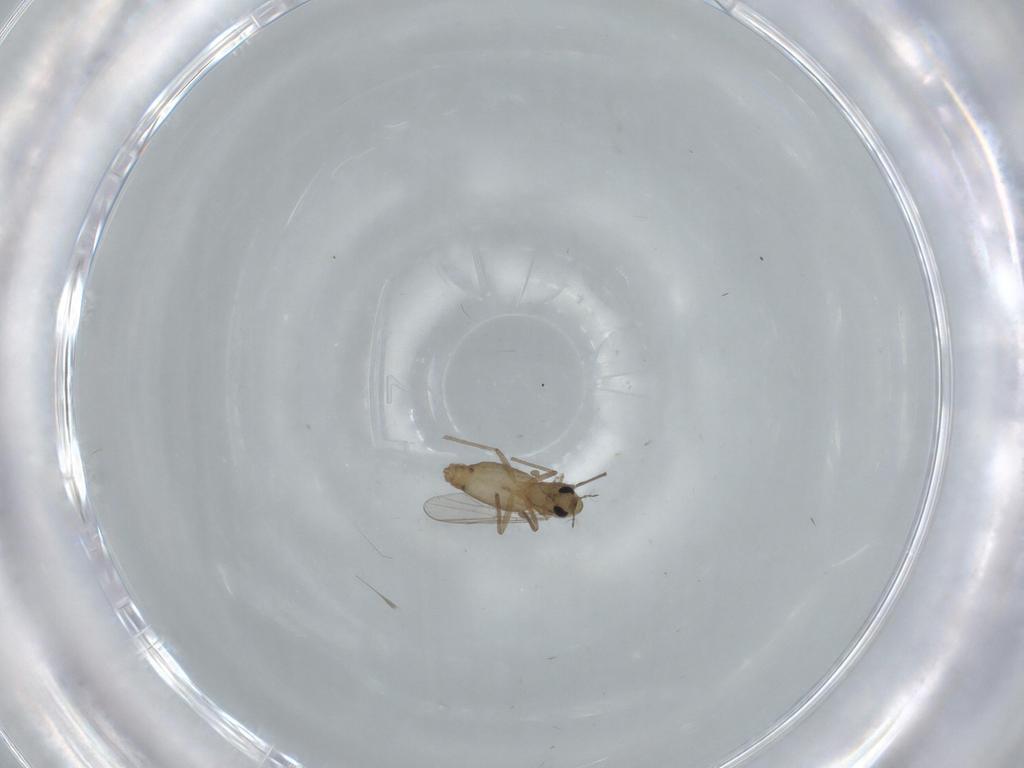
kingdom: Animalia
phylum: Arthropoda
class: Insecta
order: Diptera
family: Chironomidae
